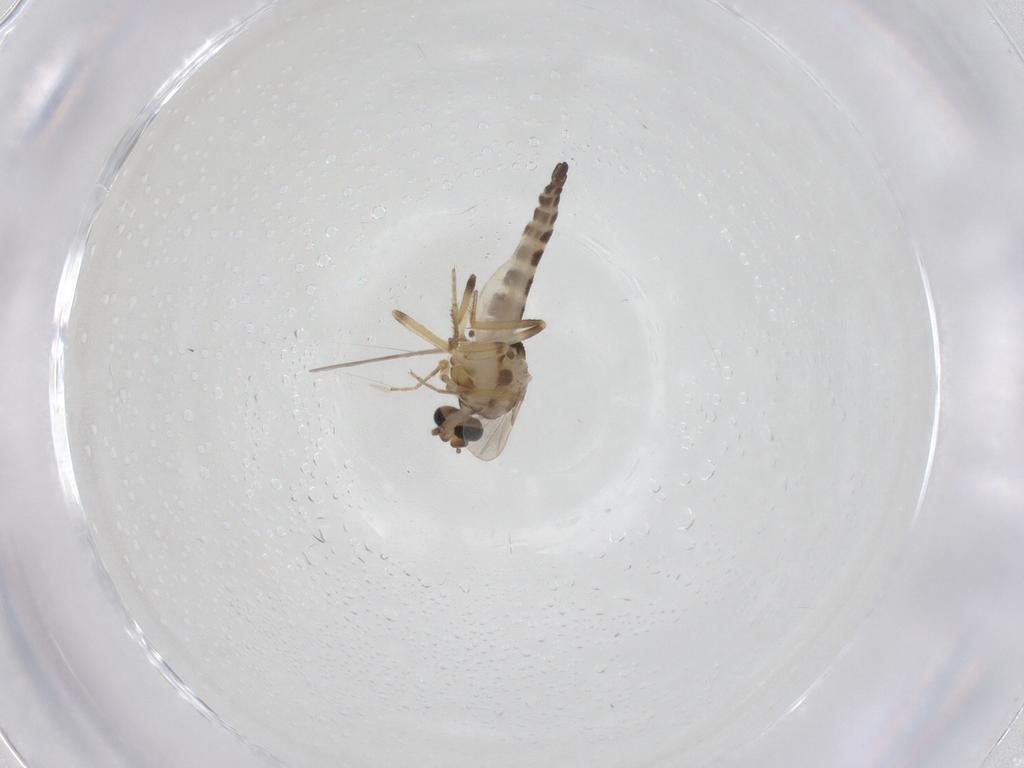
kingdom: Animalia
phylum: Arthropoda
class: Insecta
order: Diptera
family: Ceratopogonidae
